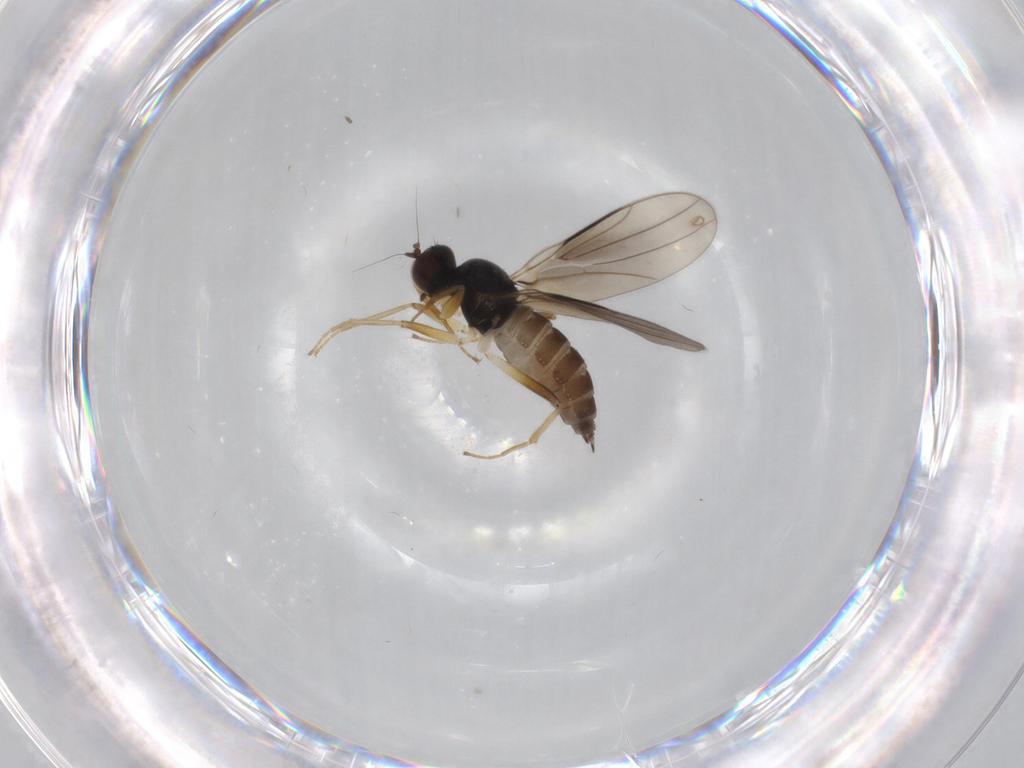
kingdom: Animalia
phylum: Arthropoda
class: Insecta
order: Diptera
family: Hybotidae
